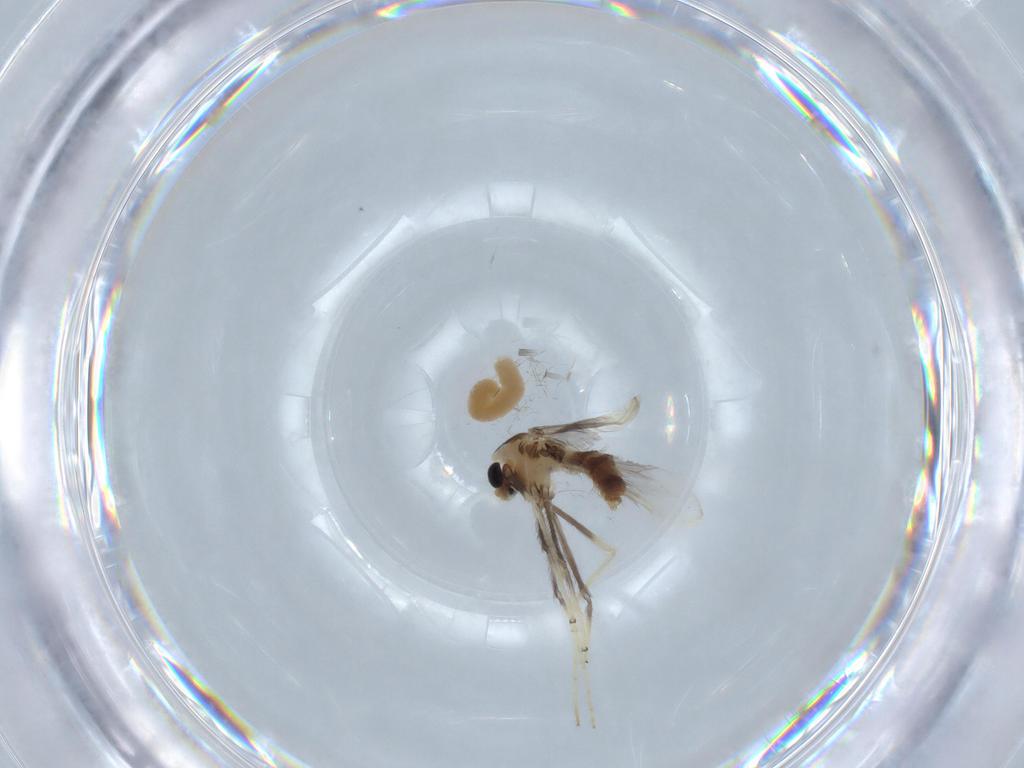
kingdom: Animalia
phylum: Arthropoda
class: Insecta
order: Diptera
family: Chironomidae
